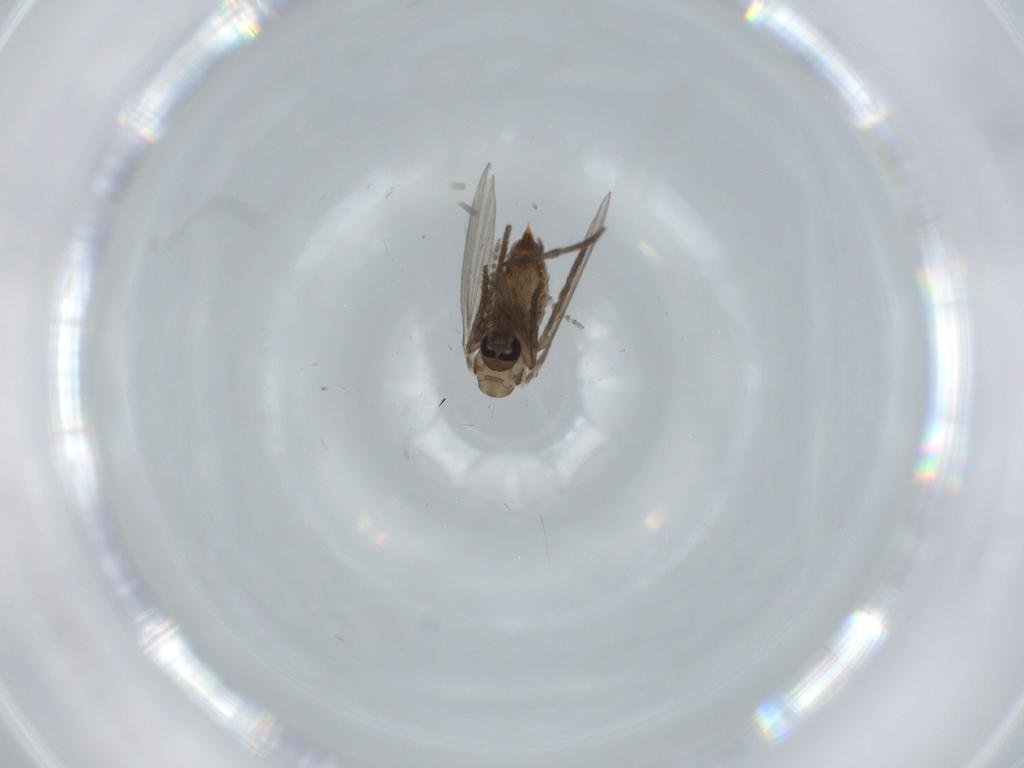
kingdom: Animalia
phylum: Arthropoda
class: Insecta
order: Diptera
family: Psychodidae
